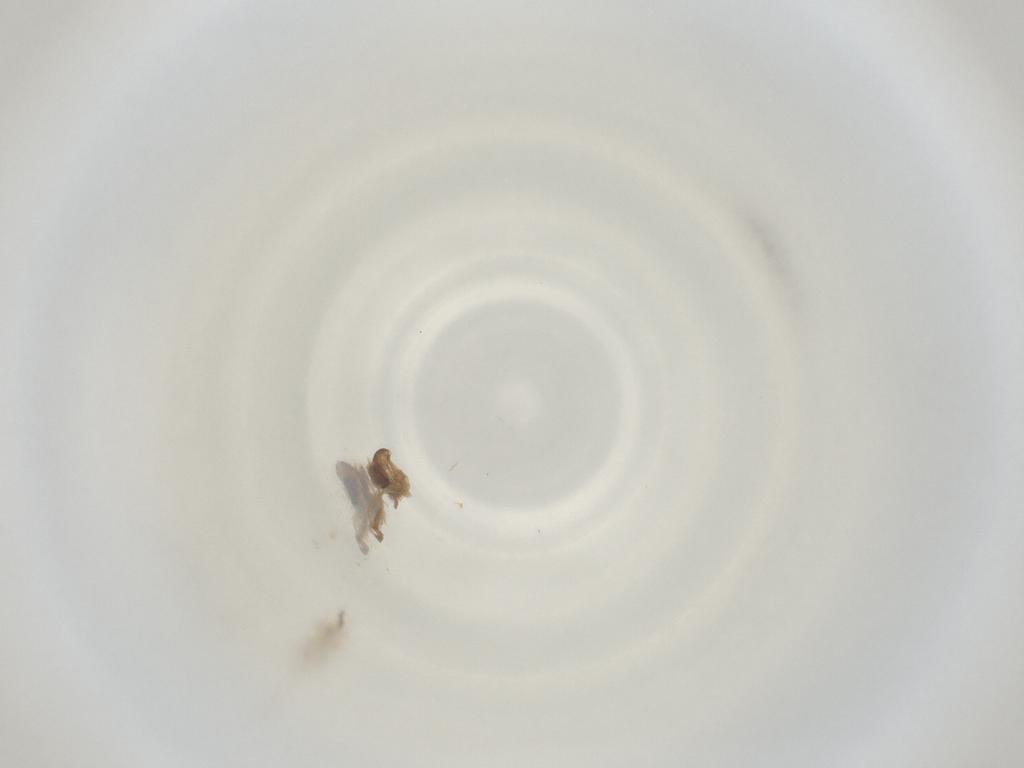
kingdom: Animalia
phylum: Arthropoda
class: Insecta
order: Diptera
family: Cecidomyiidae
